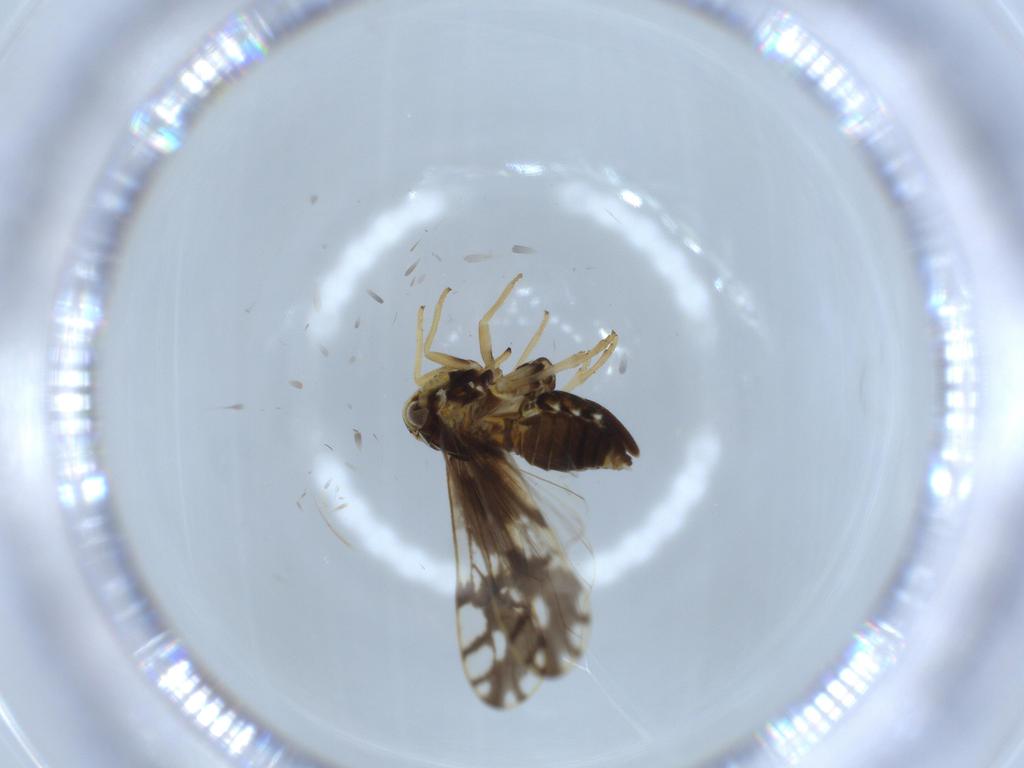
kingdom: Animalia
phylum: Arthropoda
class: Insecta
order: Hemiptera
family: Delphacidae
